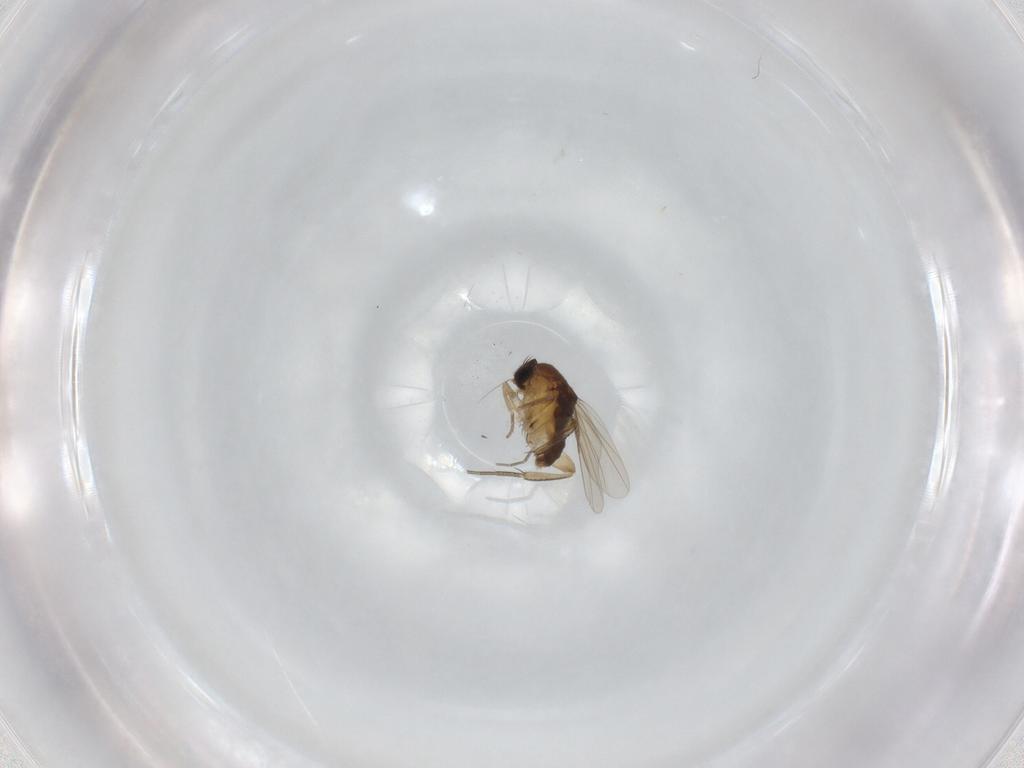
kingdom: Animalia
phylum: Arthropoda
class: Insecta
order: Diptera
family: Phoridae
